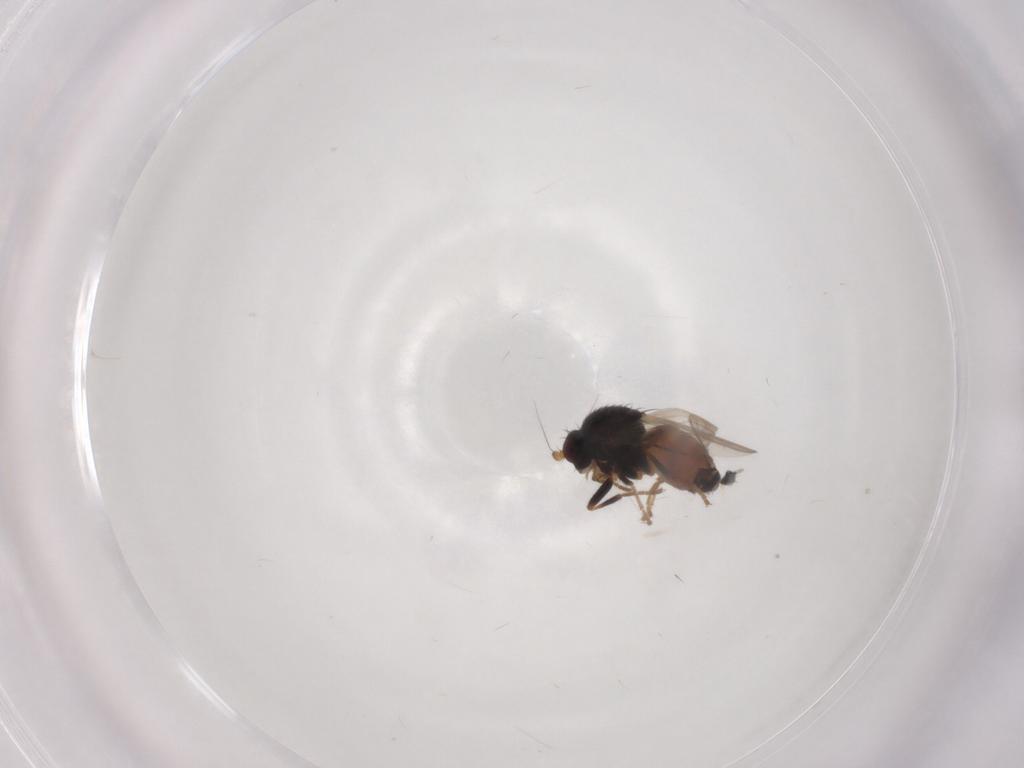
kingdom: Animalia
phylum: Arthropoda
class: Insecta
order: Diptera
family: Sphaeroceridae
